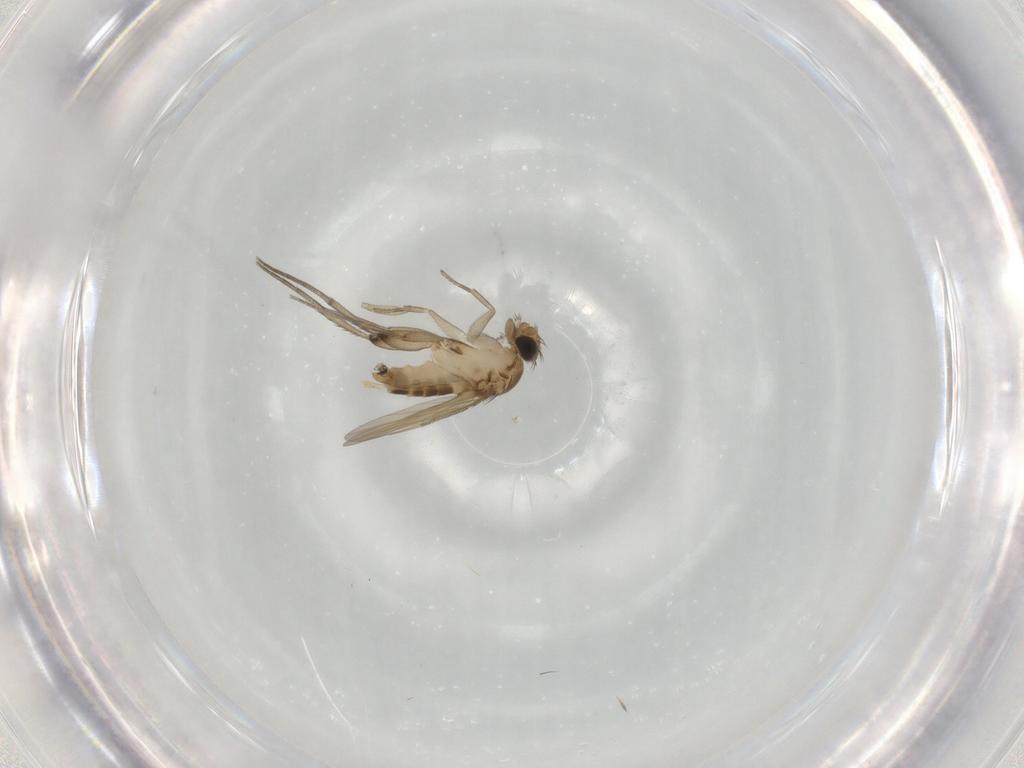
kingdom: Animalia
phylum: Arthropoda
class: Insecta
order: Diptera
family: Phoridae
